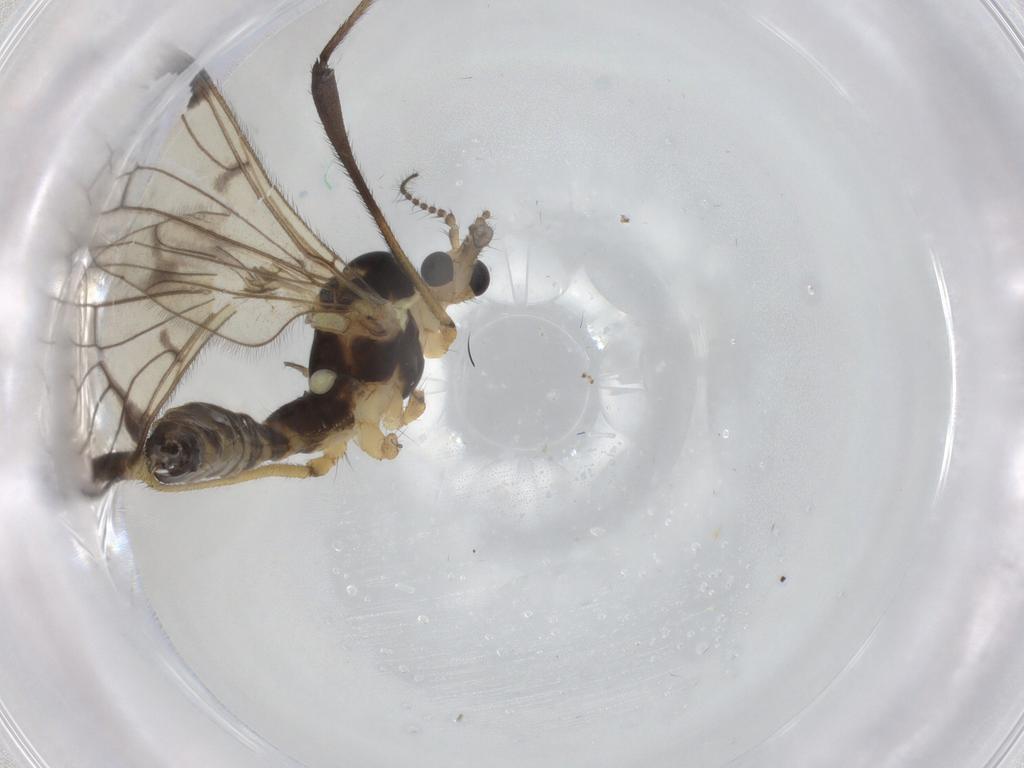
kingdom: Animalia
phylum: Arthropoda
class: Insecta
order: Diptera
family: Limoniidae
